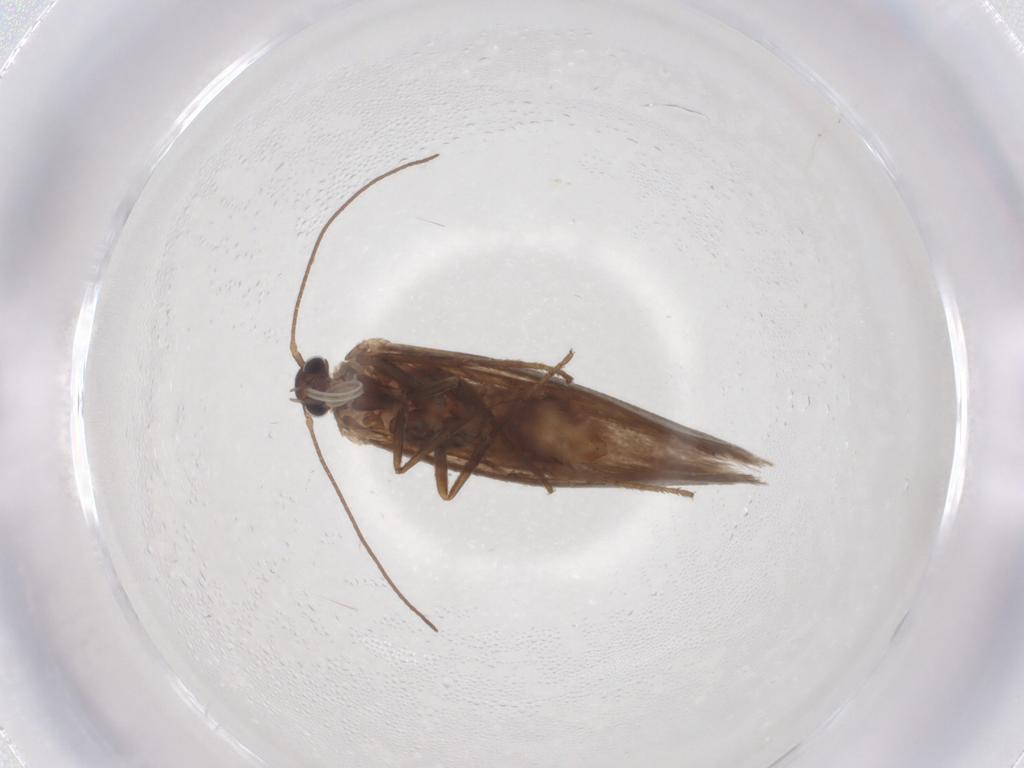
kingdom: Animalia
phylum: Arthropoda
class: Insecta
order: Lepidoptera
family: Limacodidae
